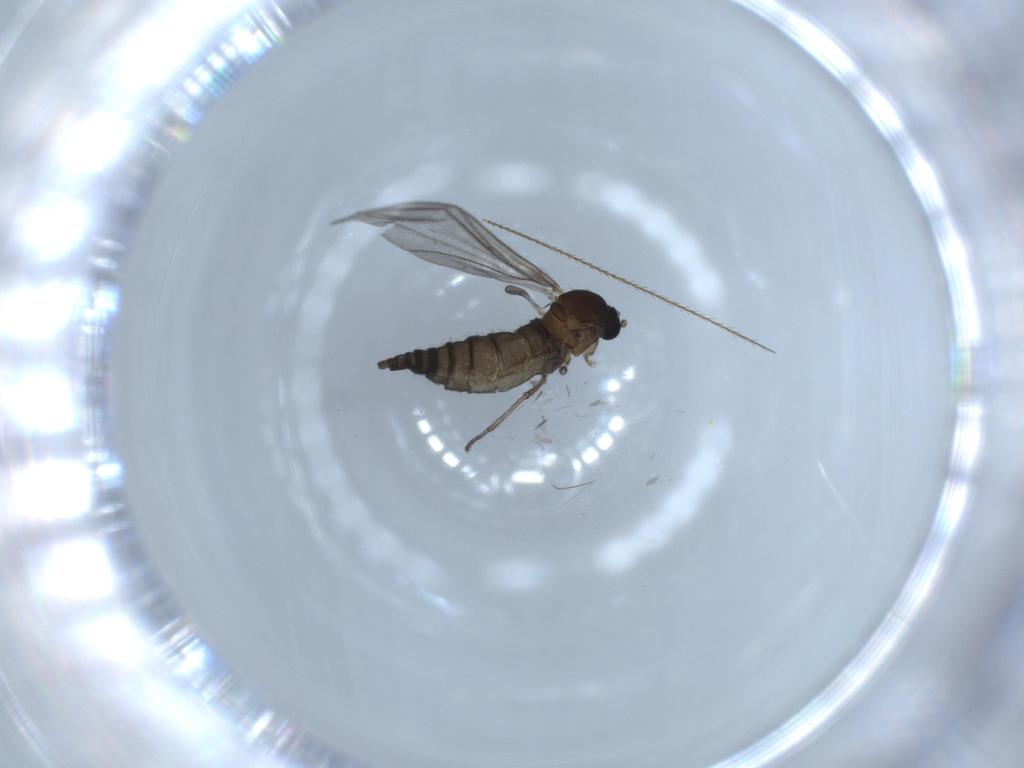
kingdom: Animalia
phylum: Arthropoda
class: Insecta
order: Diptera
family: Sciaridae
